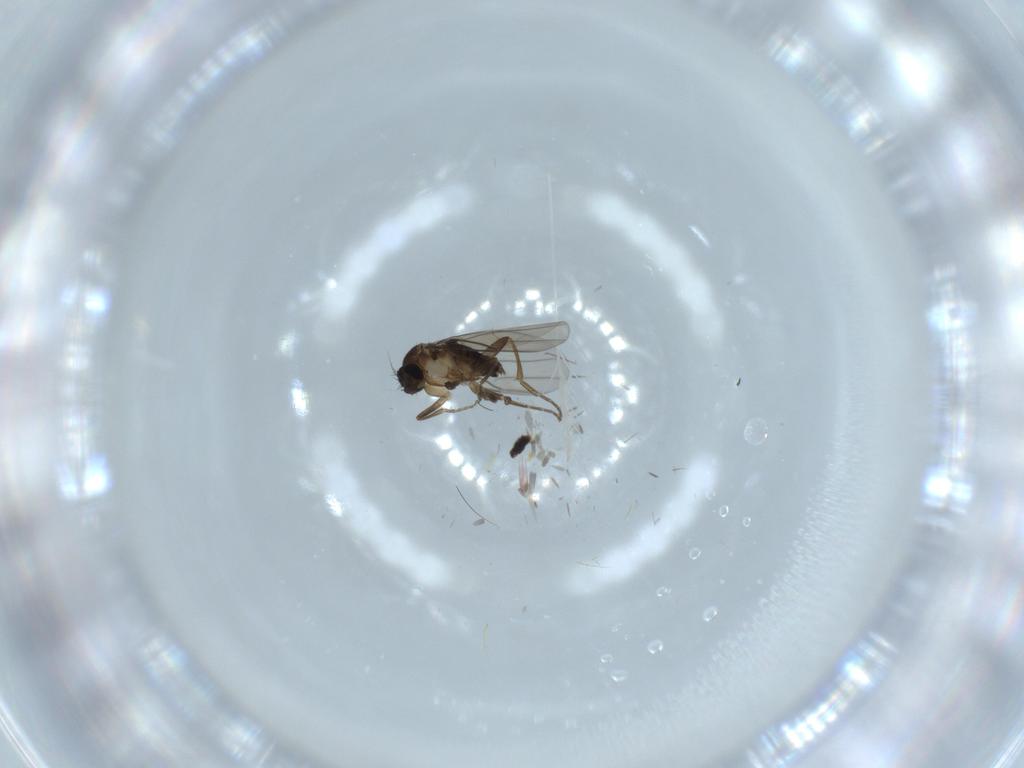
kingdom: Animalia
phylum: Arthropoda
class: Insecta
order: Diptera
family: Phoridae
